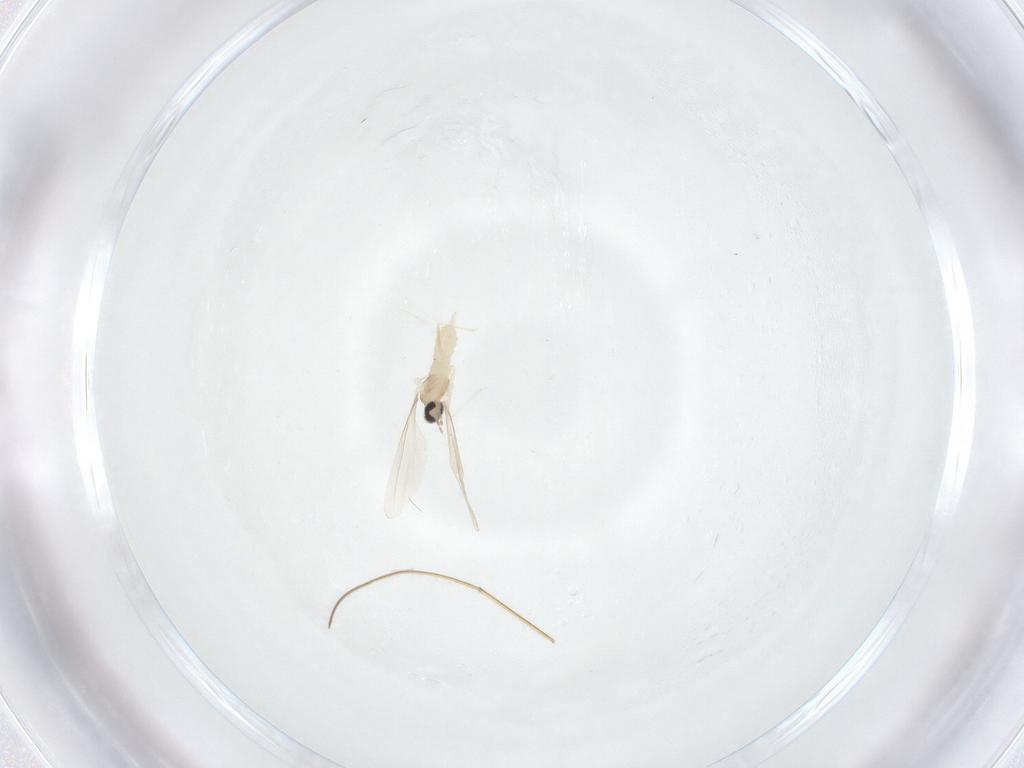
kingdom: Animalia
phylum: Arthropoda
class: Insecta
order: Diptera
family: Cecidomyiidae
